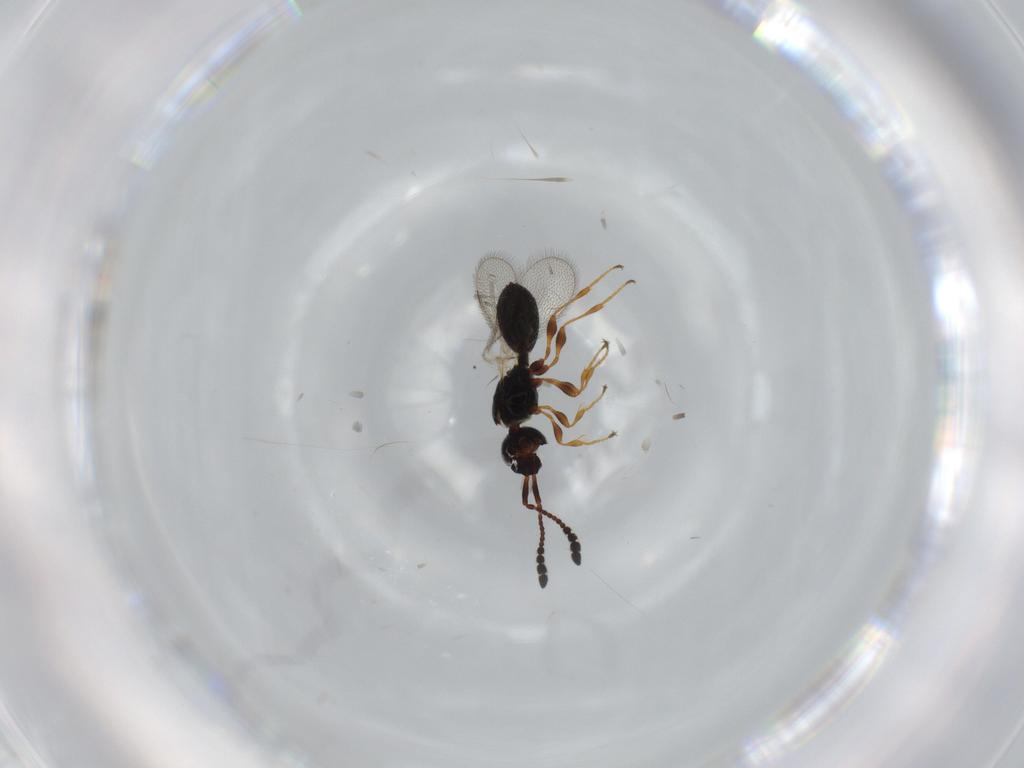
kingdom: Animalia
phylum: Arthropoda
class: Insecta
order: Hymenoptera
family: Diapriidae
